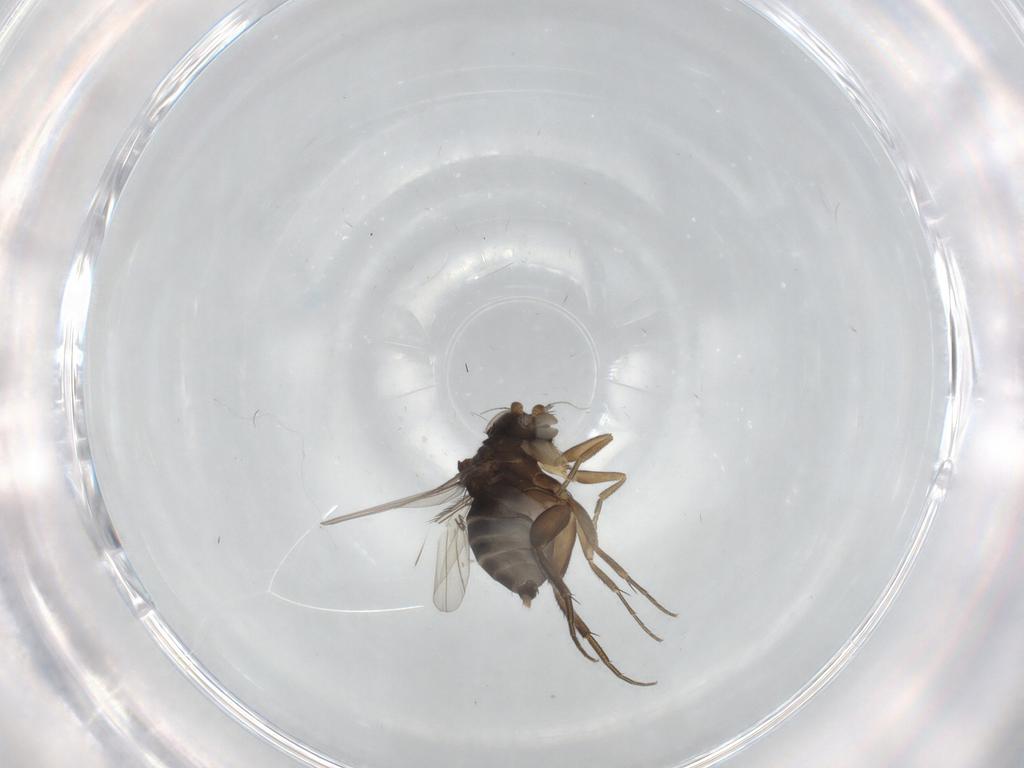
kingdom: Animalia
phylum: Arthropoda
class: Insecta
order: Diptera
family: Phoridae
